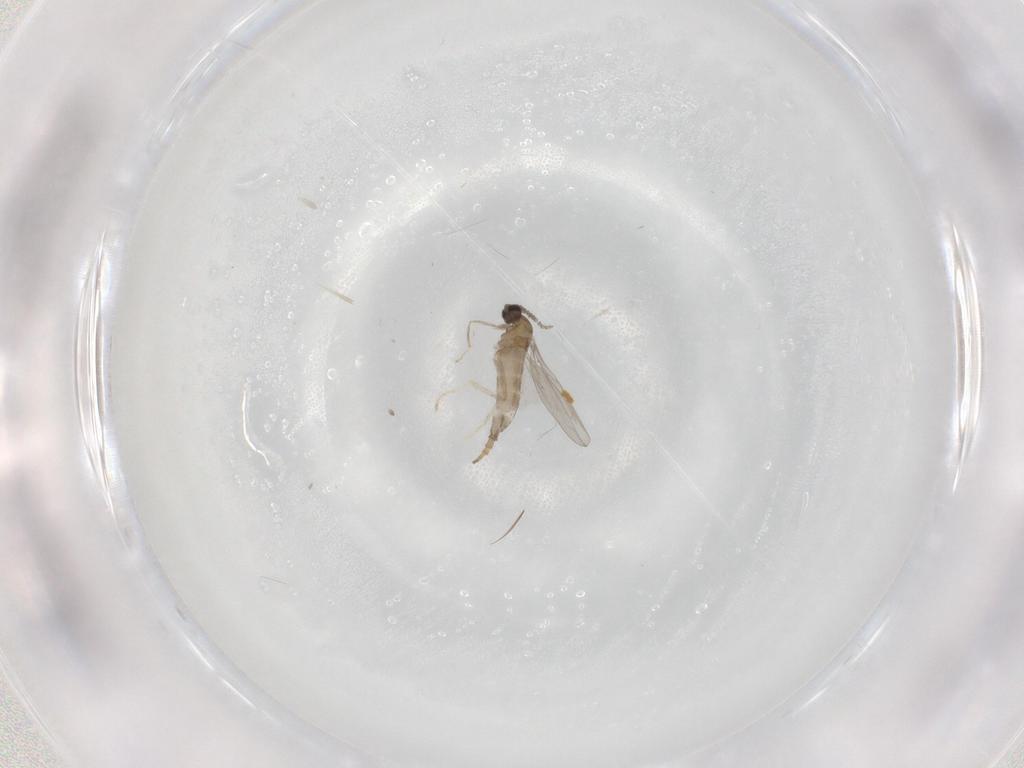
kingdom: Animalia
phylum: Arthropoda
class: Insecta
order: Diptera
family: Cecidomyiidae
